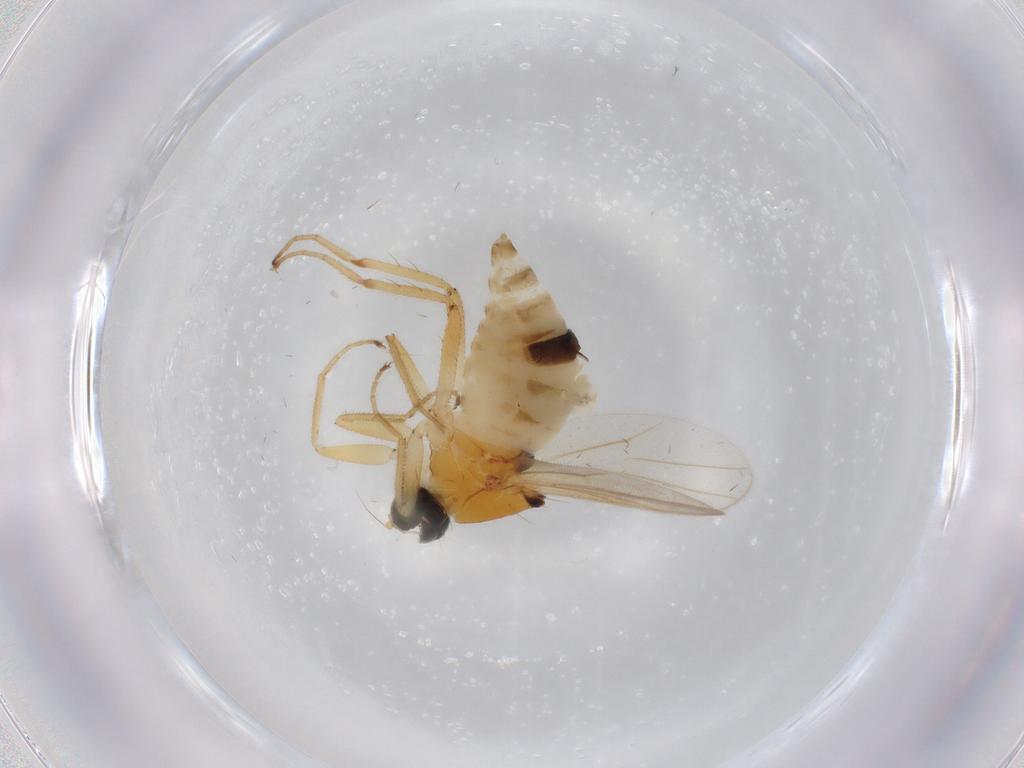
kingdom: Animalia
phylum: Arthropoda
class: Insecta
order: Diptera
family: Hybotidae
